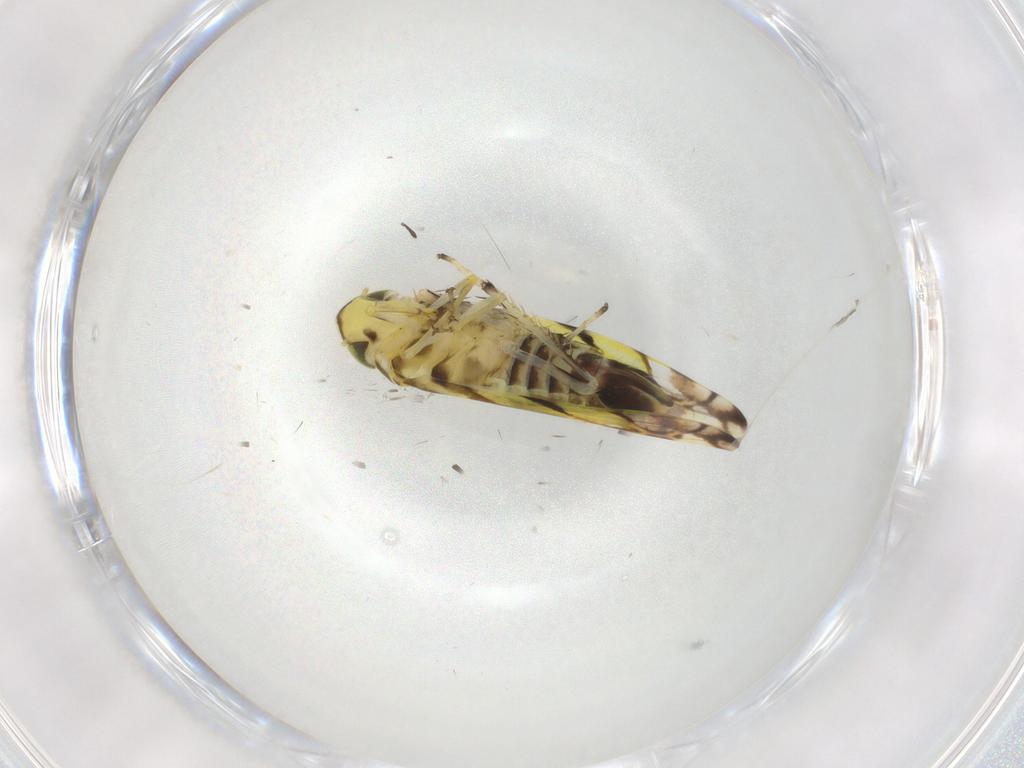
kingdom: Animalia
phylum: Arthropoda
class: Insecta
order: Hemiptera
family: Cicadellidae
